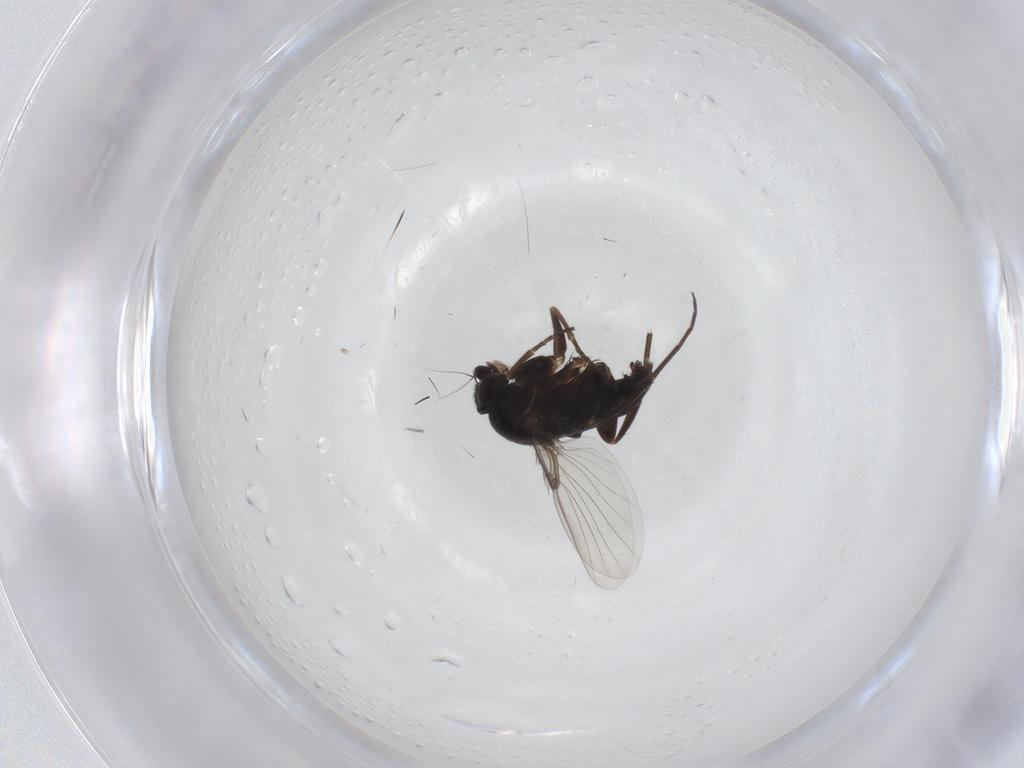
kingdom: Animalia
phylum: Arthropoda
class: Insecta
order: Diptera
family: Phoridae
